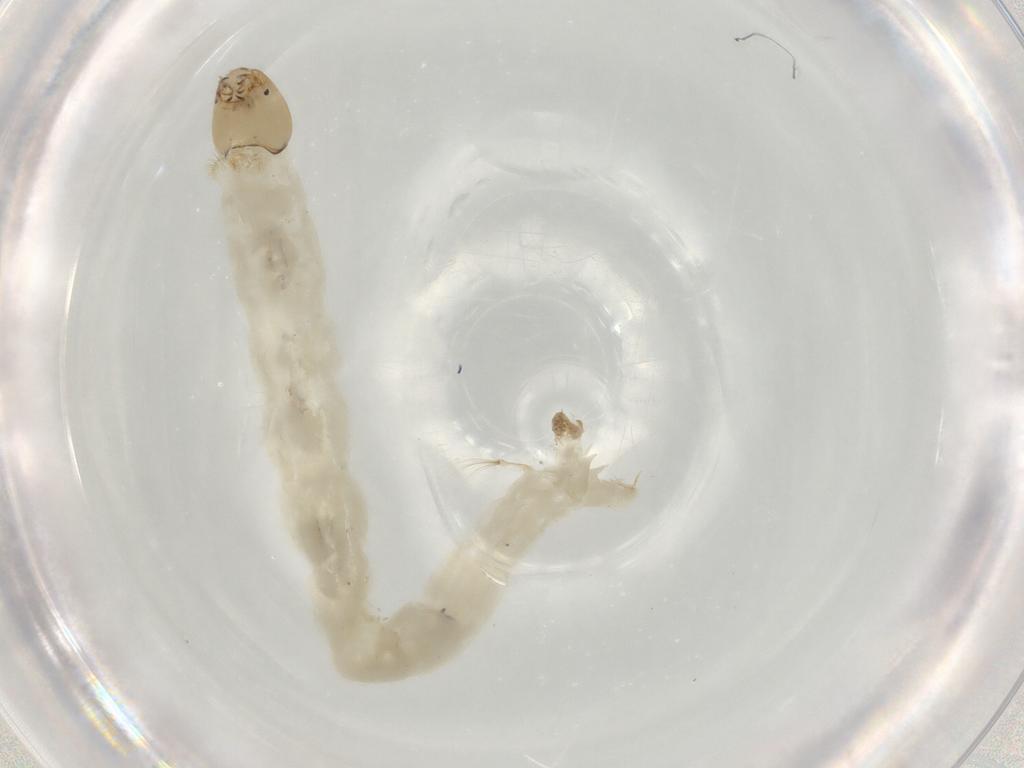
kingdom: Animalia
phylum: Arthropoda
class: Insecta
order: Diptera
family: Chironomidae
